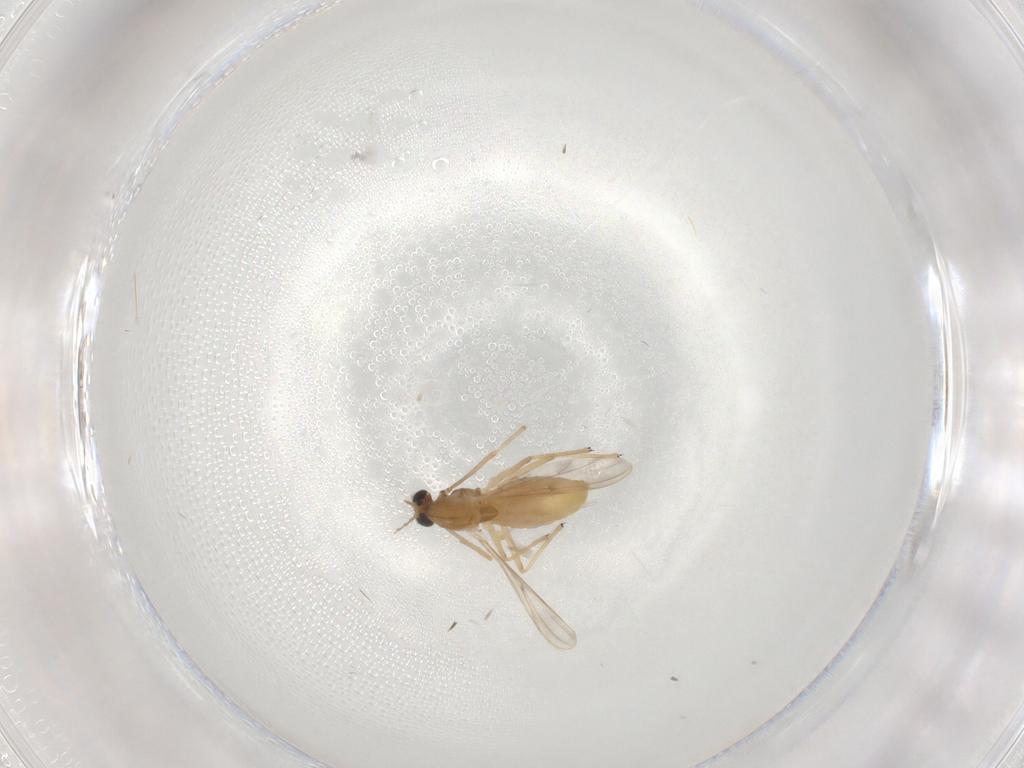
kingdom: Animalia
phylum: Arthropoda
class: Insecta
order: Diptera
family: Chironomidae
